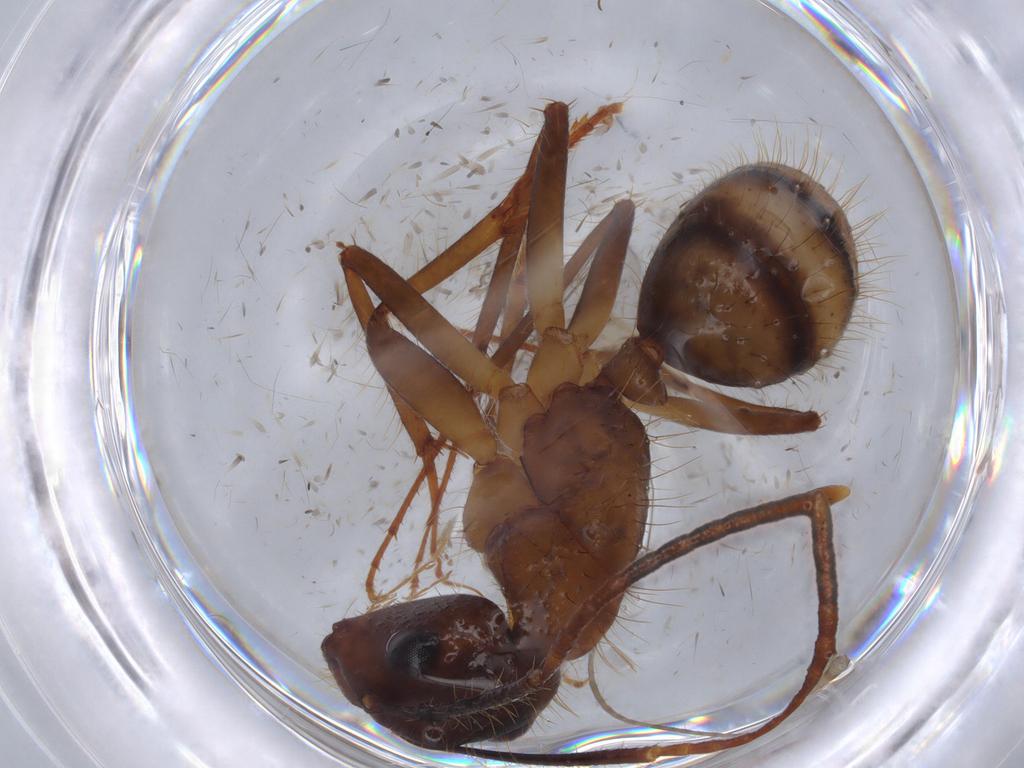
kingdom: Animalia
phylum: Arthropoda
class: Insecta
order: Hymenoptera
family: Formicidae
